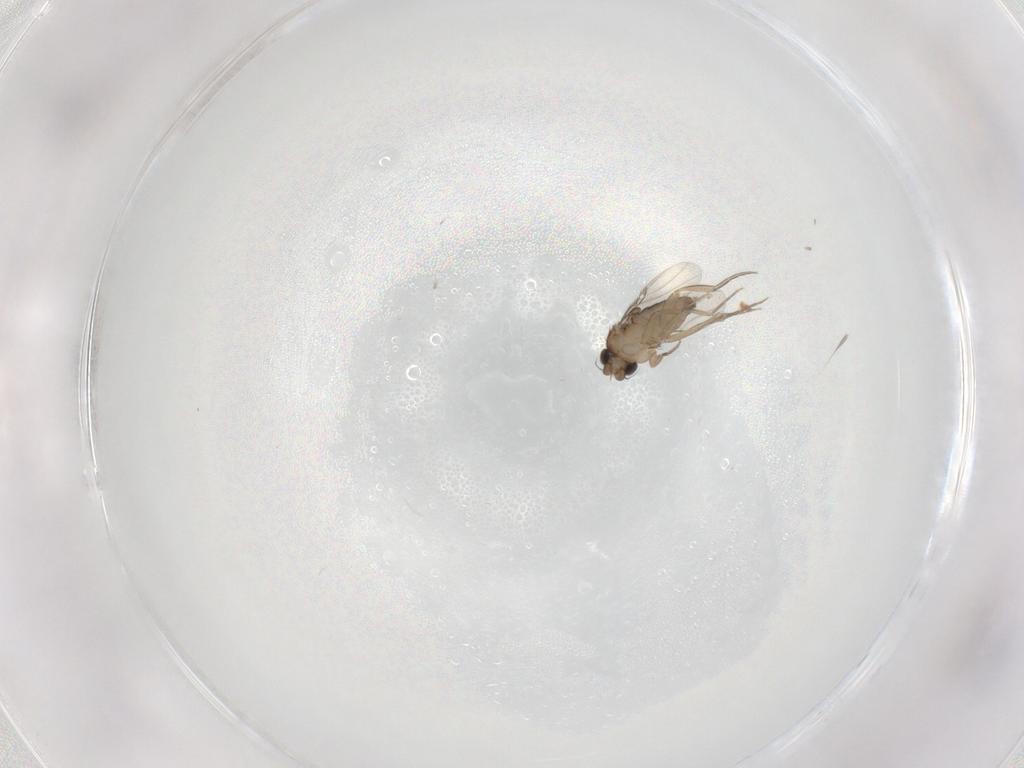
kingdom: Animalia
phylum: Arthropoda
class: Insecta
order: Diptera
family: Phoridae
